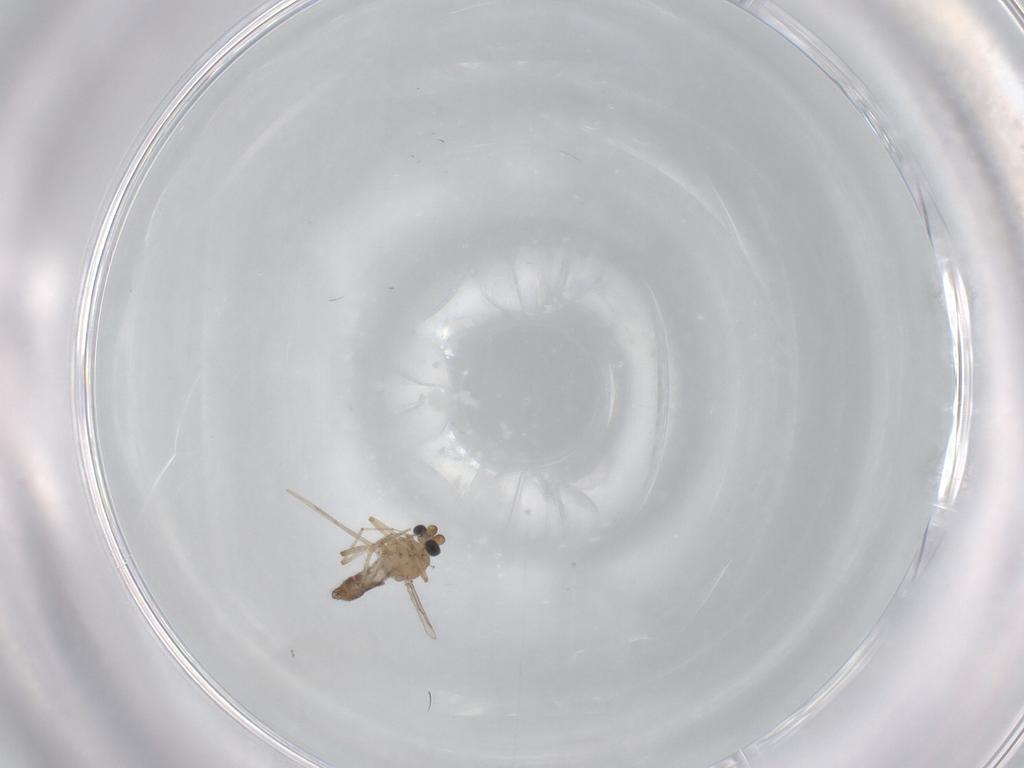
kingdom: Animalia
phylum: Arthropoda
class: Insecta
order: Diptera
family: Ceratopogonidae
